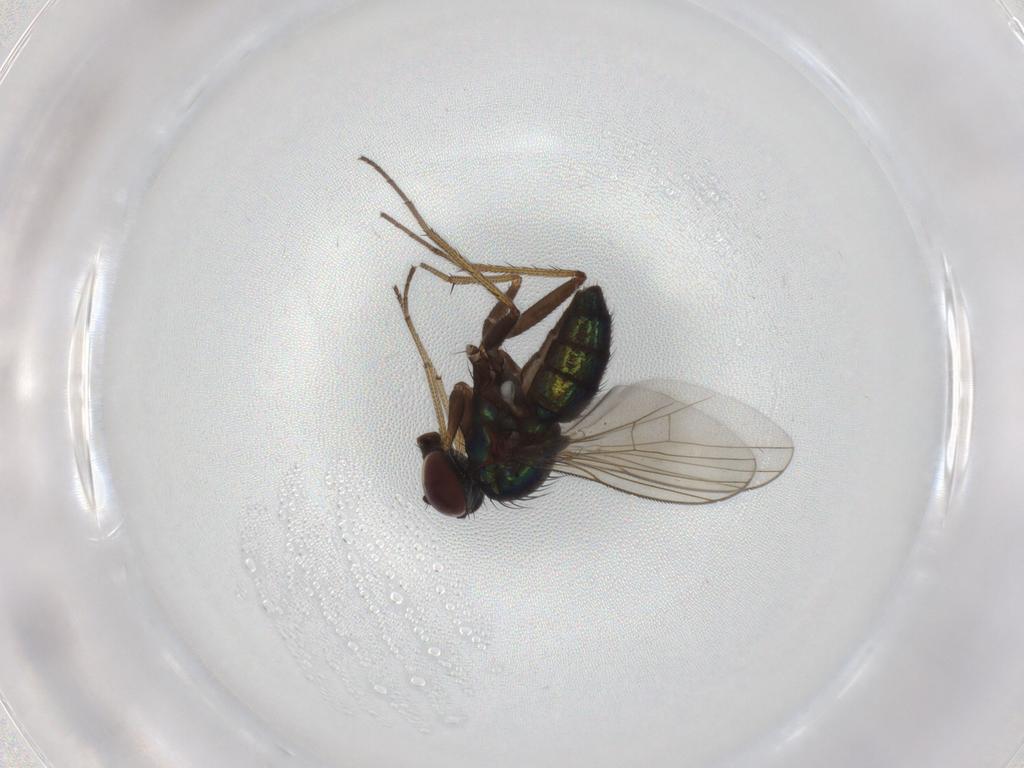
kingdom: Animalia
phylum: Arthropoda
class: Insecta
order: Diptera
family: Dolichopodidae
